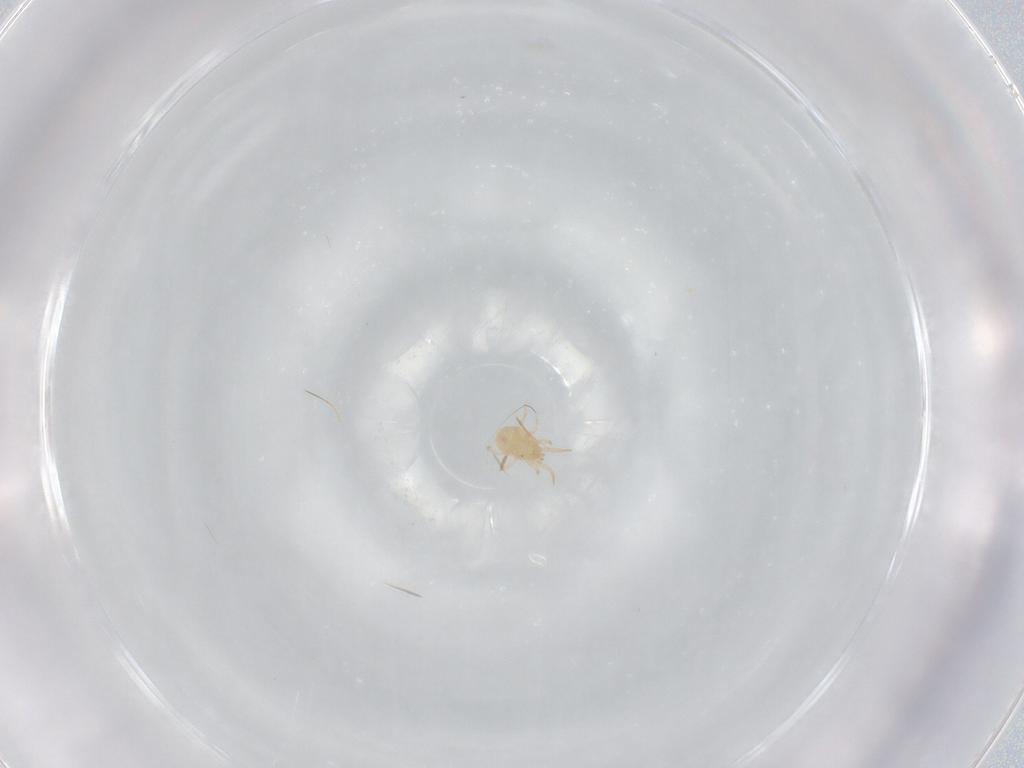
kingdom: Animalia
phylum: Arthropoda
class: Arachnida
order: Mesostigmata
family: Phytoseiidae
